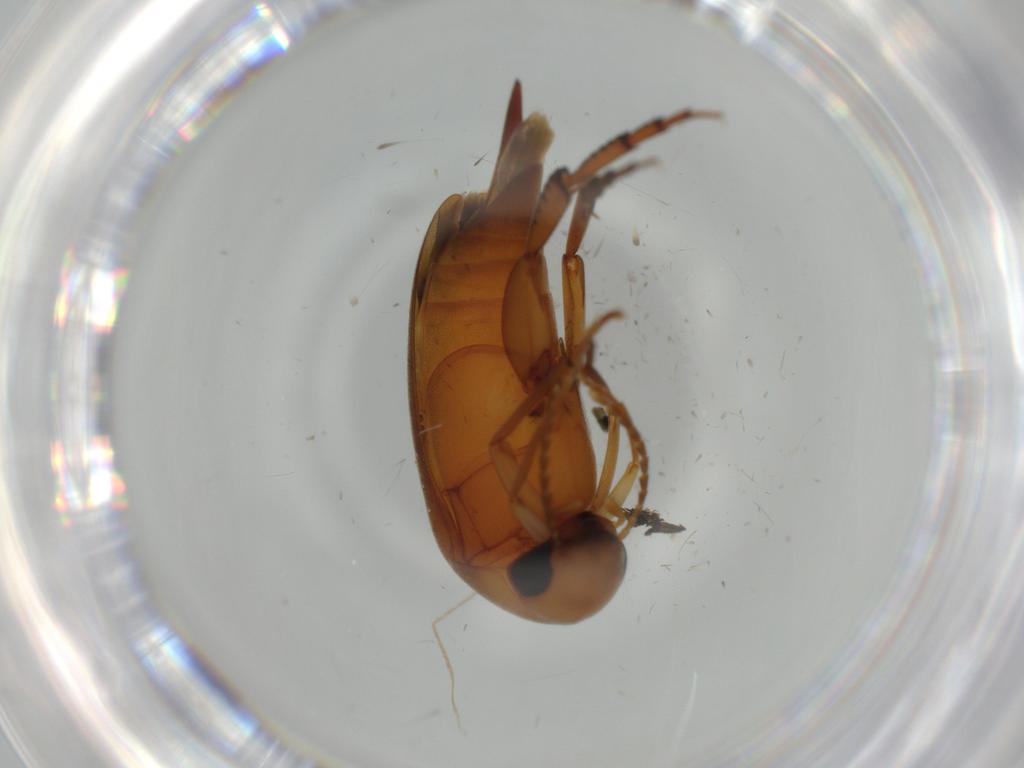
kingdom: Animalia
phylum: Arthropoda
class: Insecta
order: Coleoptera
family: Mordellidae
